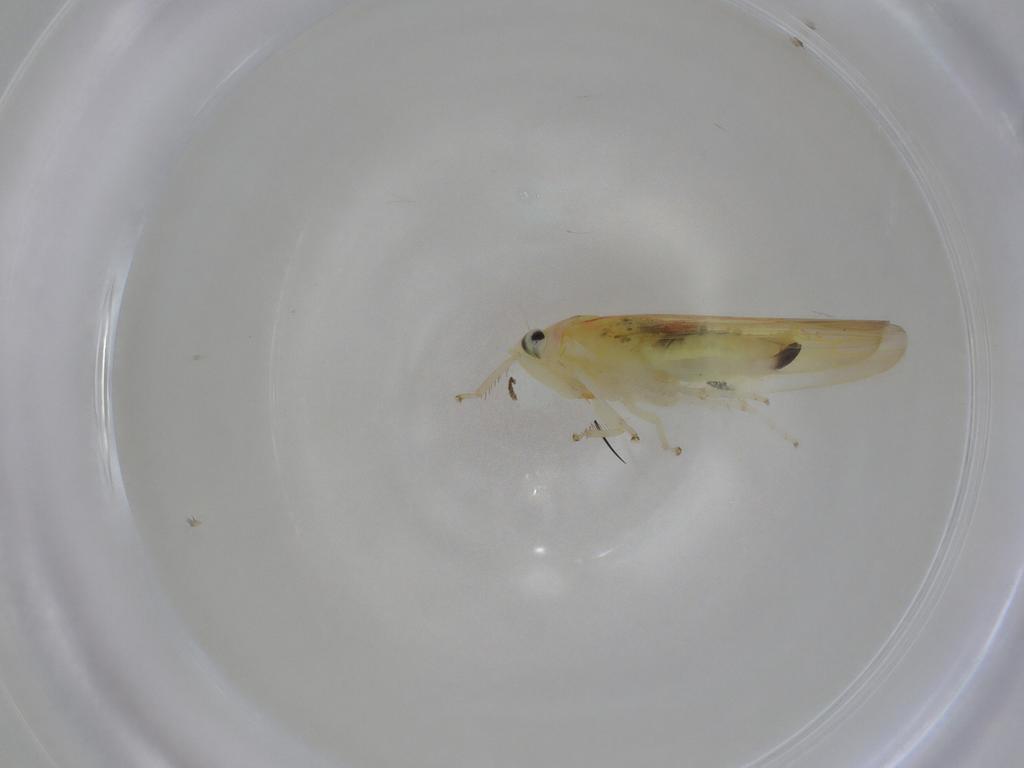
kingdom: Animalia
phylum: Arthropoda
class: Insecta
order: Hemiptera
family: Cicadellidae
